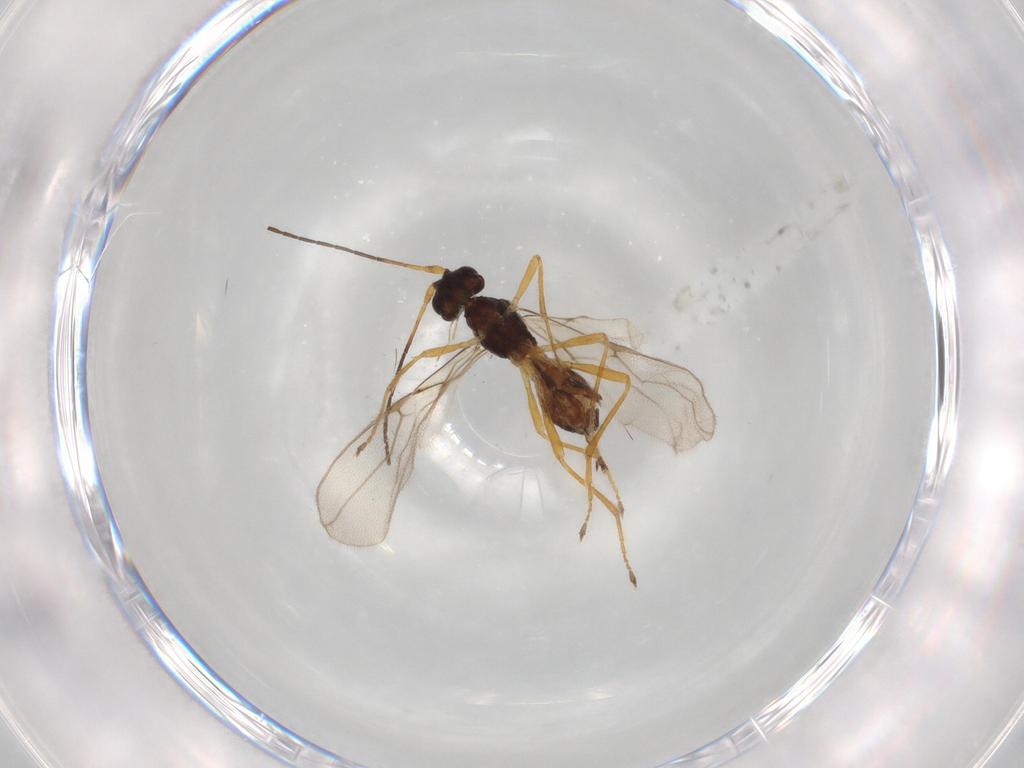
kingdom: Animalia
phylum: Arthropoda
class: Insecta
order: Hymenoptera
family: Braconidae
